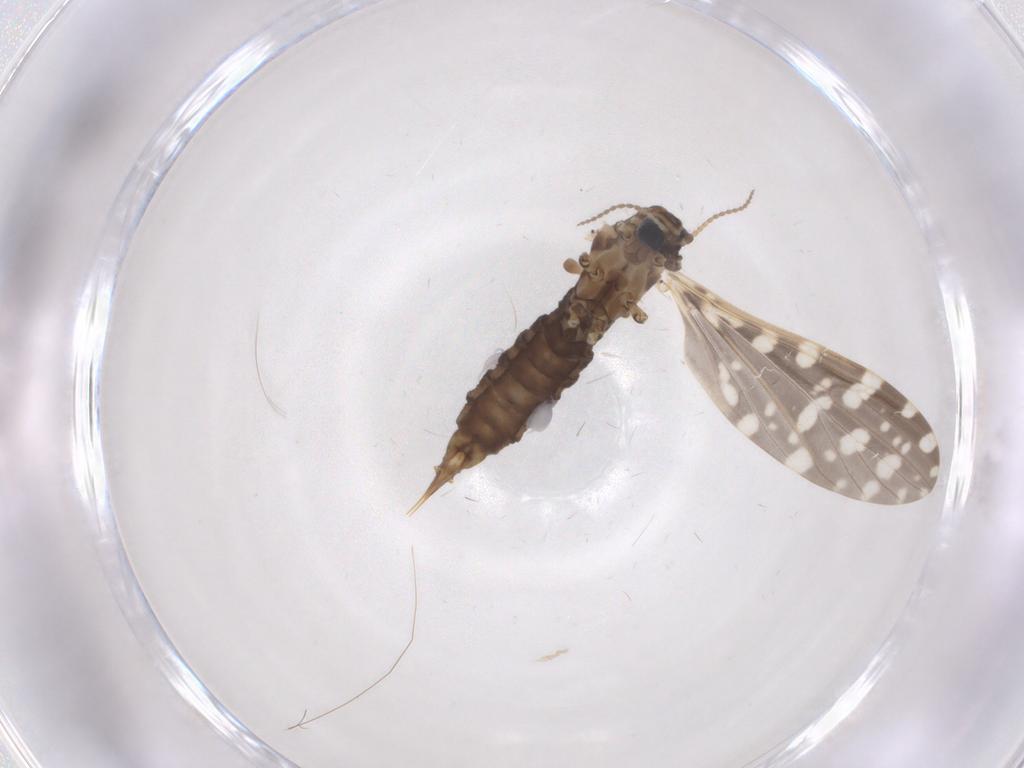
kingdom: Animalia
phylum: Arthropoda
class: Insecta
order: Diptera
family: Limoniidae
